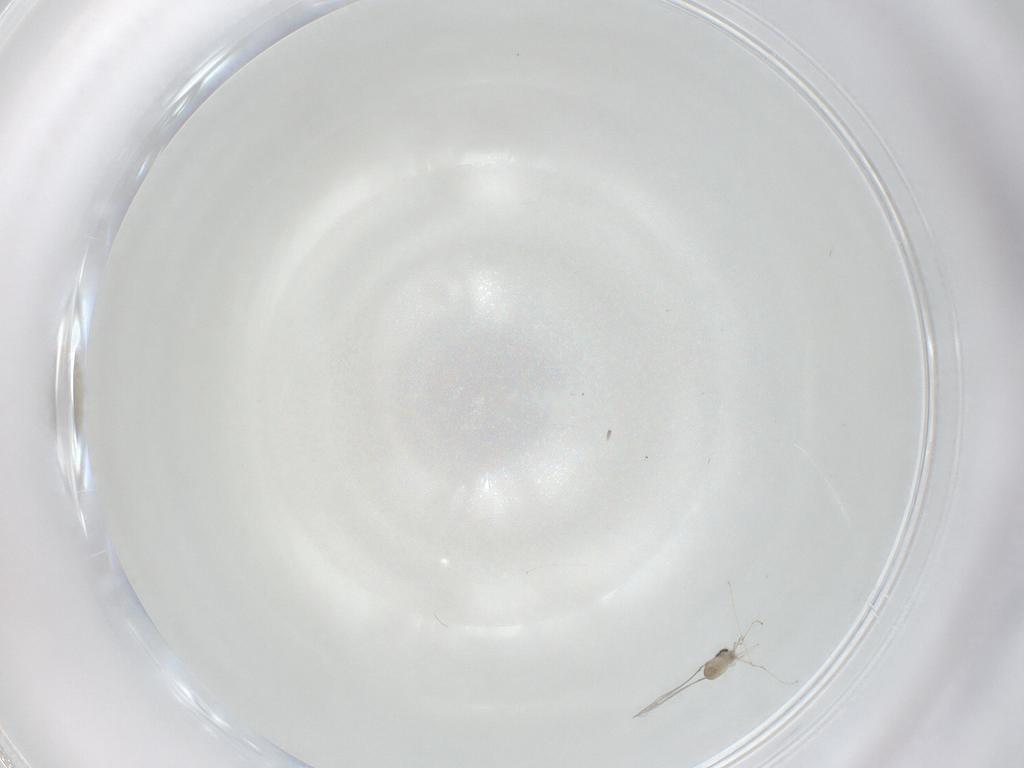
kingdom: Animalia
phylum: Arthropoda
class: Insecta
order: Diptera
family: Cecidomyiidae
